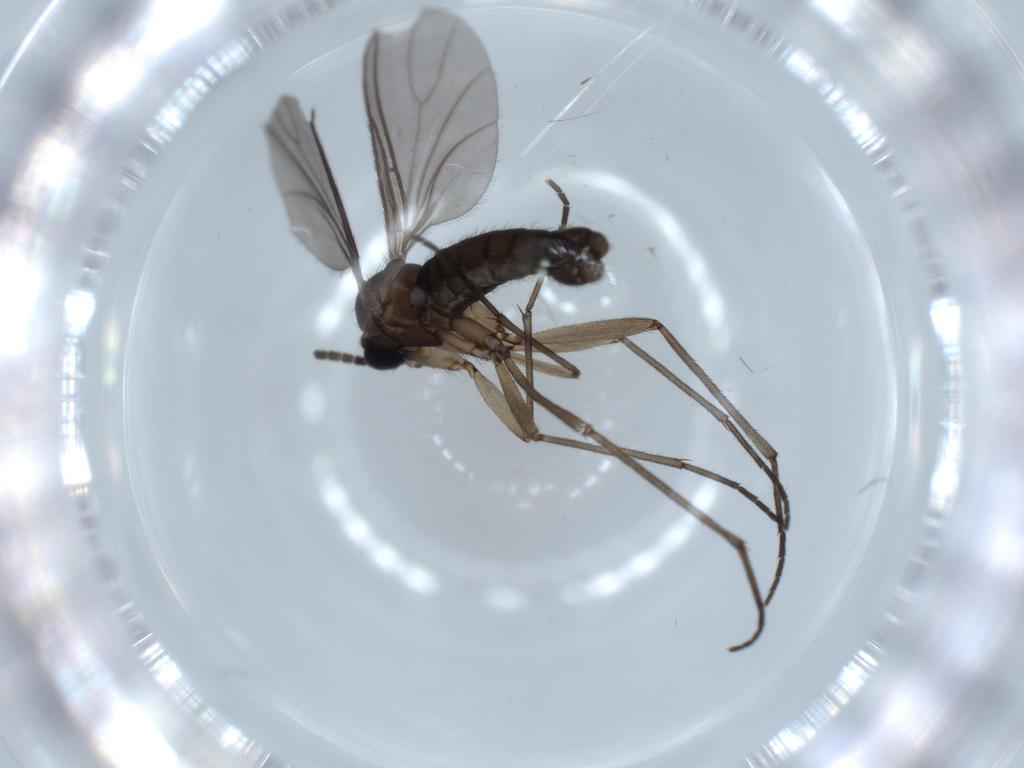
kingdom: Animalia
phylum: Arthropoda
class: Insecta
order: Diptera
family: Sciaridae
